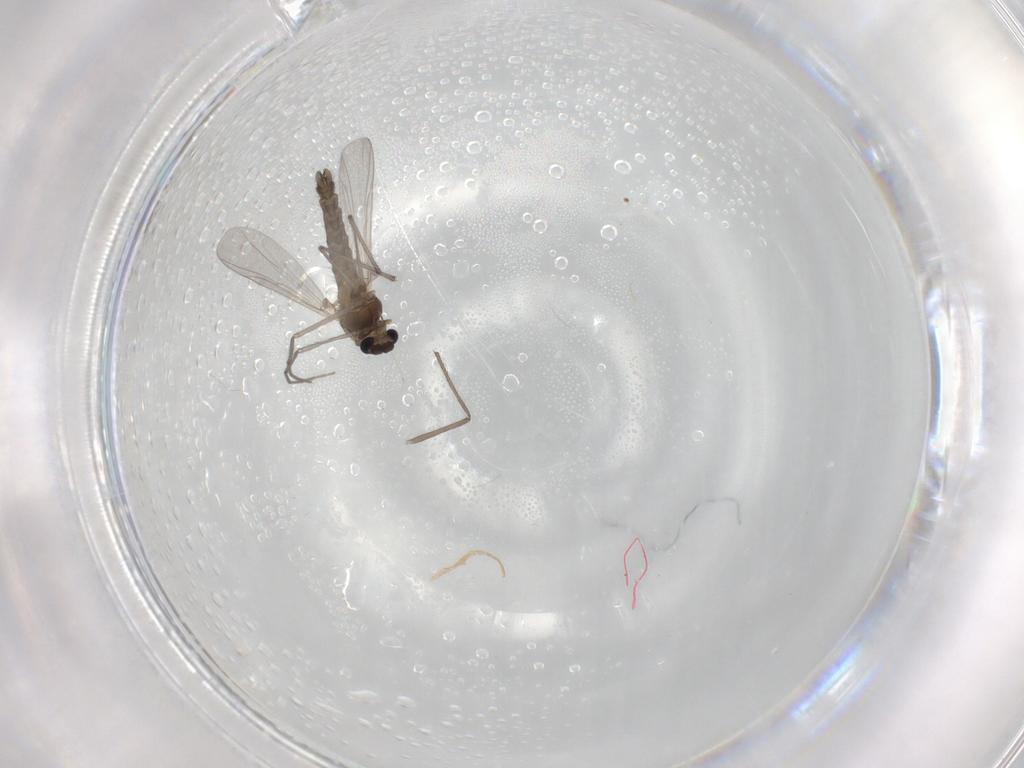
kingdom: Animalia
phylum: Arthropoda
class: Insecta
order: Diptera
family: Chironomidae
